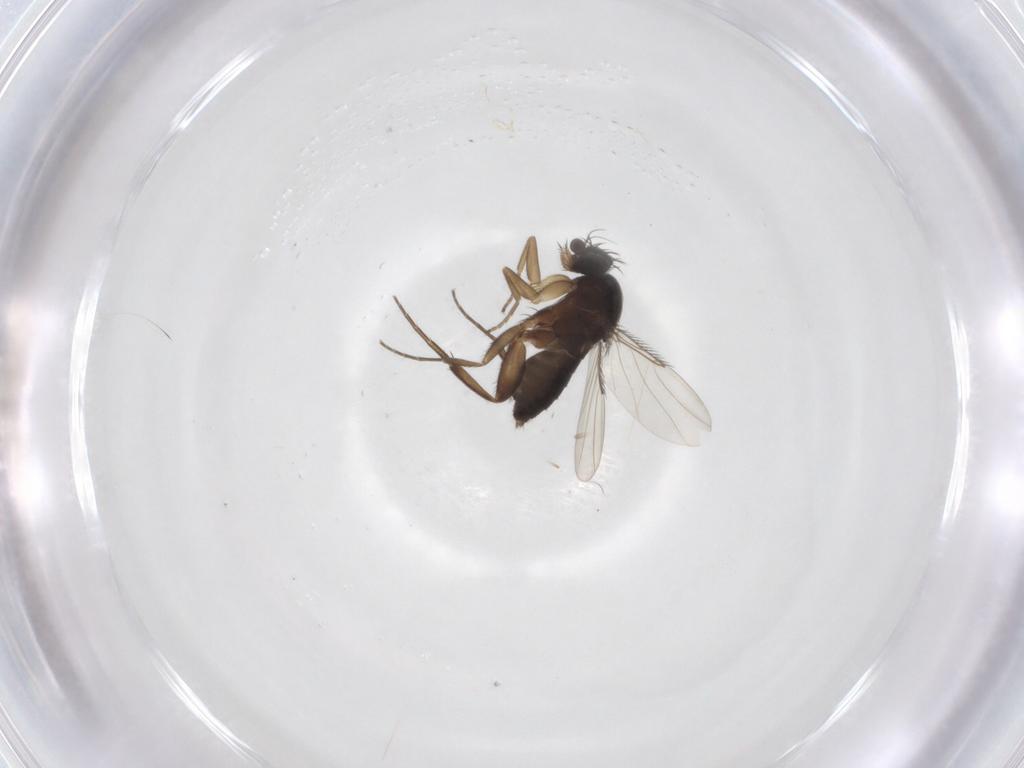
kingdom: Animalia
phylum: Arthropoda
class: Insecta
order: Diptera
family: Phoridae
